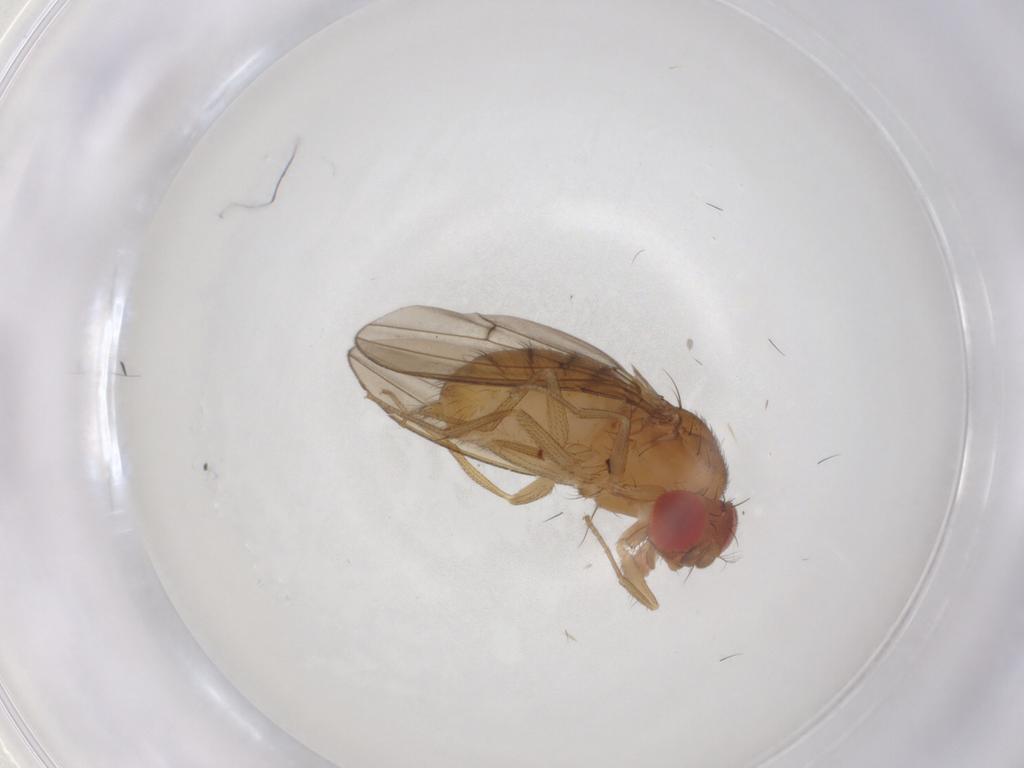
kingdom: Animalia
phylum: Arthropoda
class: Insecta
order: Diptera
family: Drosophilidae
